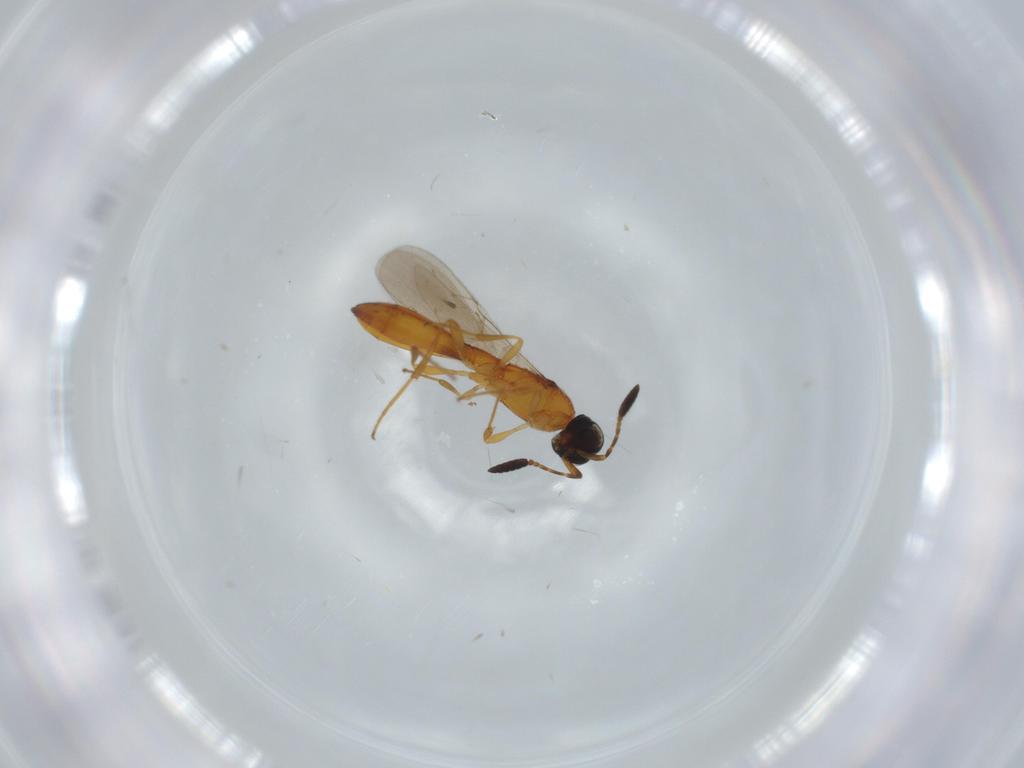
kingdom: Animalia
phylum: Arthropoda
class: Insecta
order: Hymenoptera
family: Formicidae
